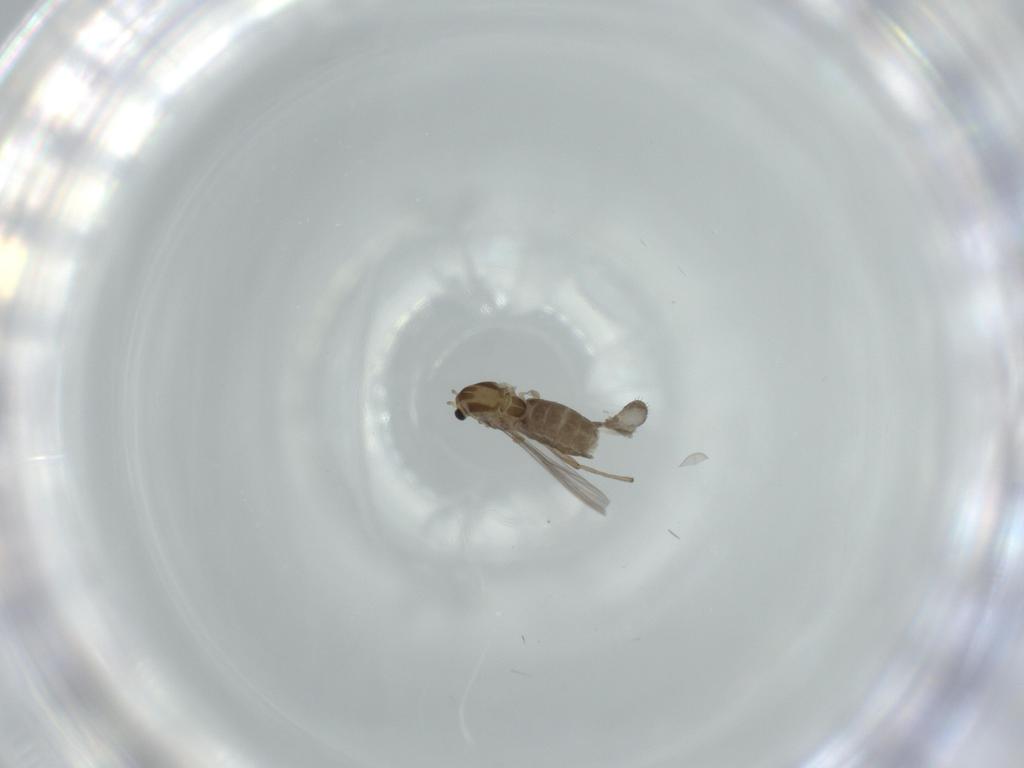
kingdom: Animalia
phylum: Arthropoda
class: Insecta
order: Diptera
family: Chironomidae
